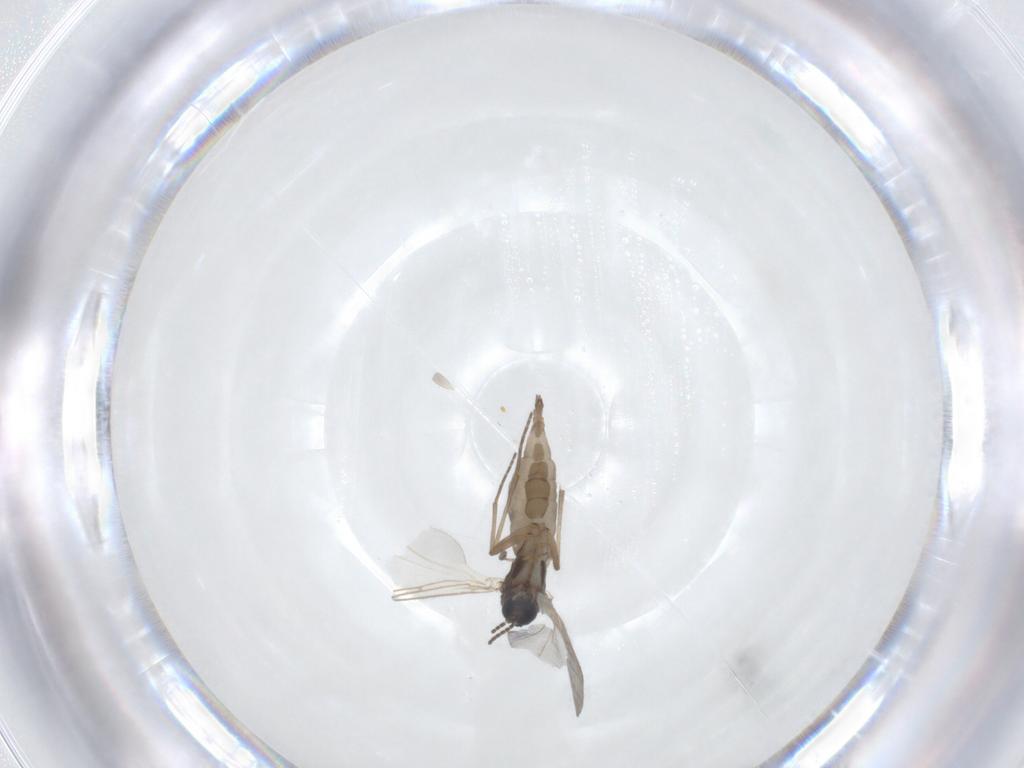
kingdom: Animalia
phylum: Arthropoda
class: Insecta
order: Diptera
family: Sciaridae
